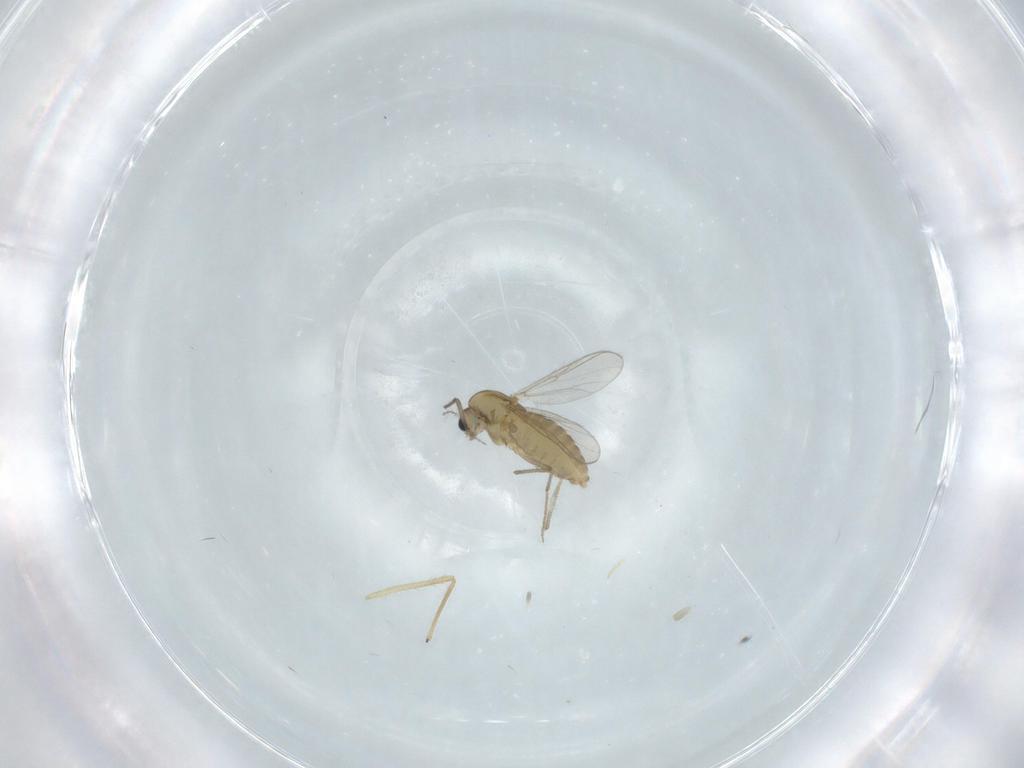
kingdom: Animalia
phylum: Arthropoda
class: Insecta
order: Diptera
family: Chironomidae
